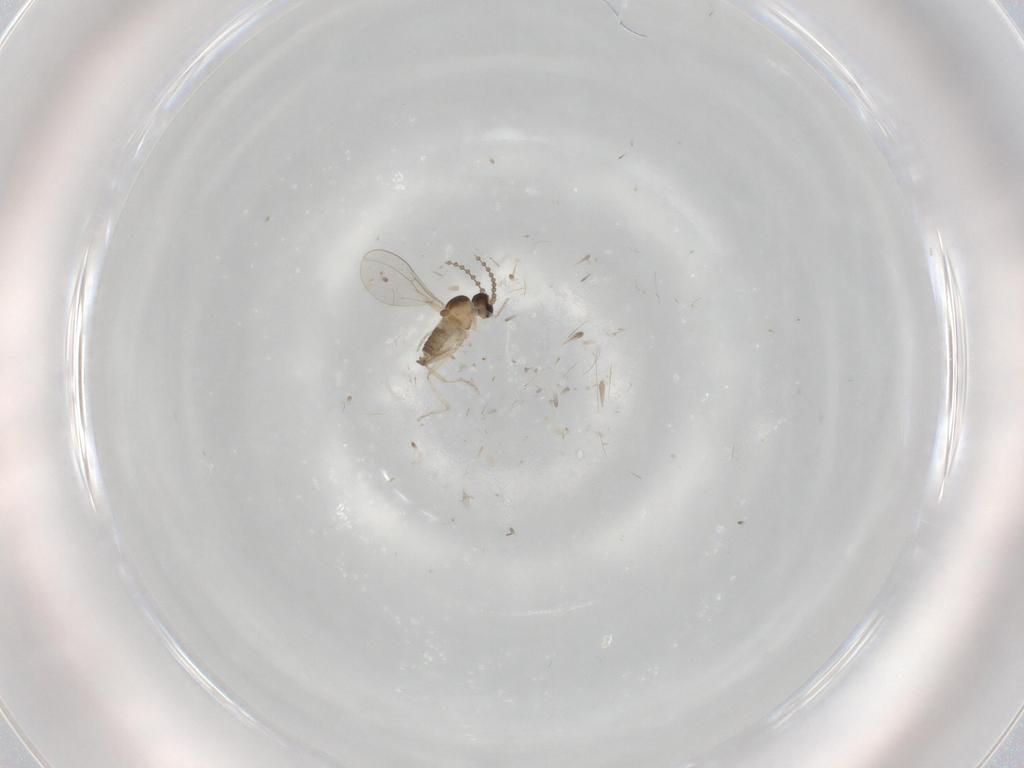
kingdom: Animalia
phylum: Arthropoda
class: Insecta
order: Diptera
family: Cecidomyiidae
